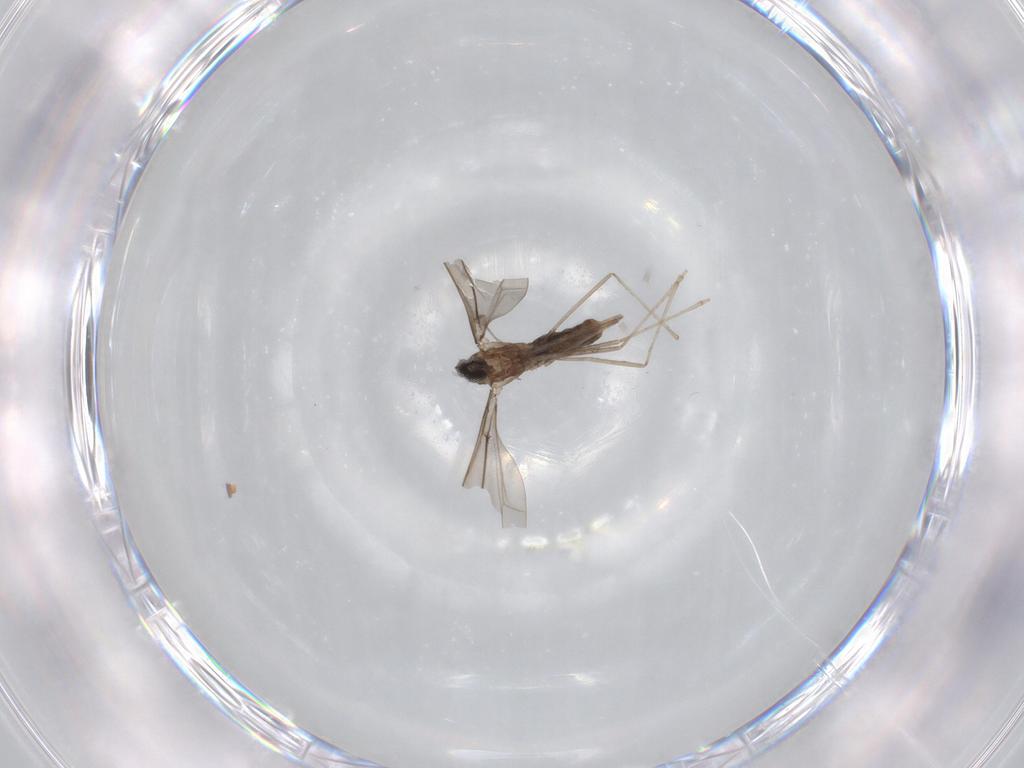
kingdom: Animalia
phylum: Arthropoda
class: Insecta
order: Diptera
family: Cecidomyiidae
